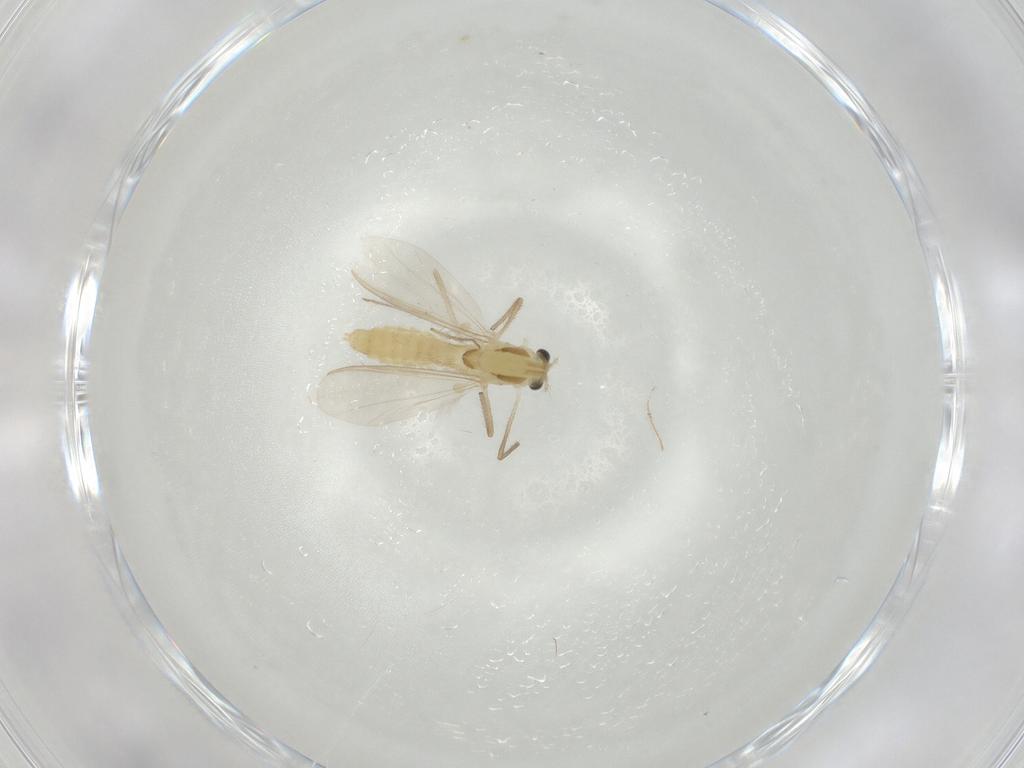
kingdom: Animalia
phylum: Arthropoda
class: Insecta
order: Diptera
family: Chironomidae
